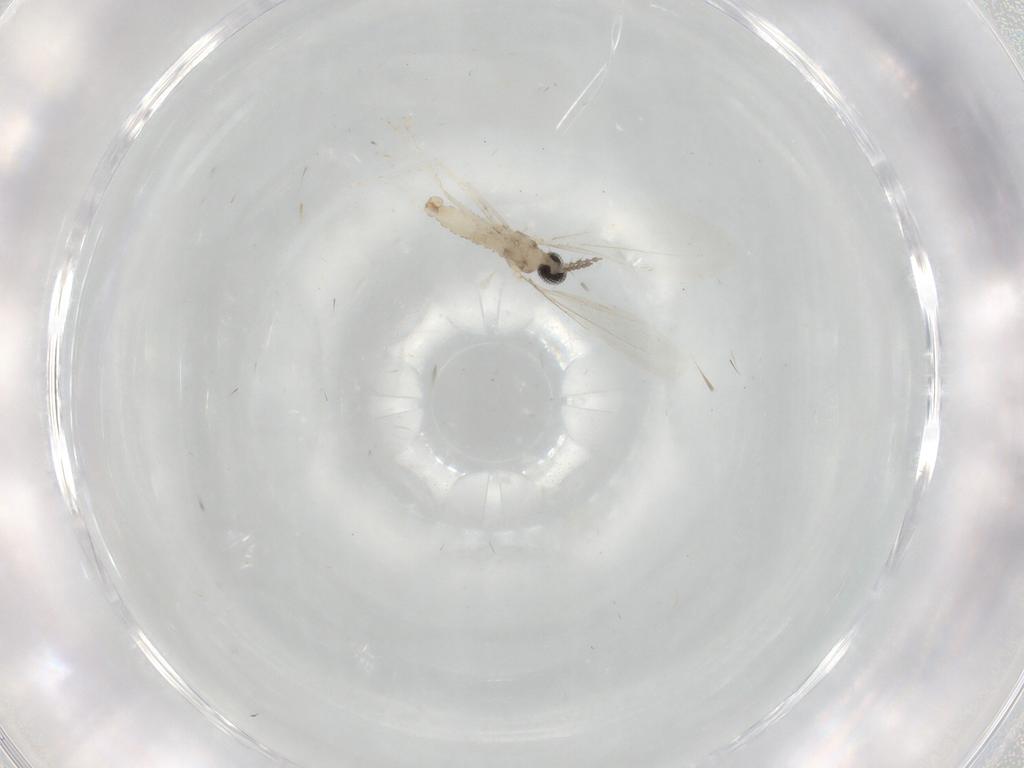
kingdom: Animalia
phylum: Arthropoda
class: Insecta
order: Diptera
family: Cecidomyiidae
